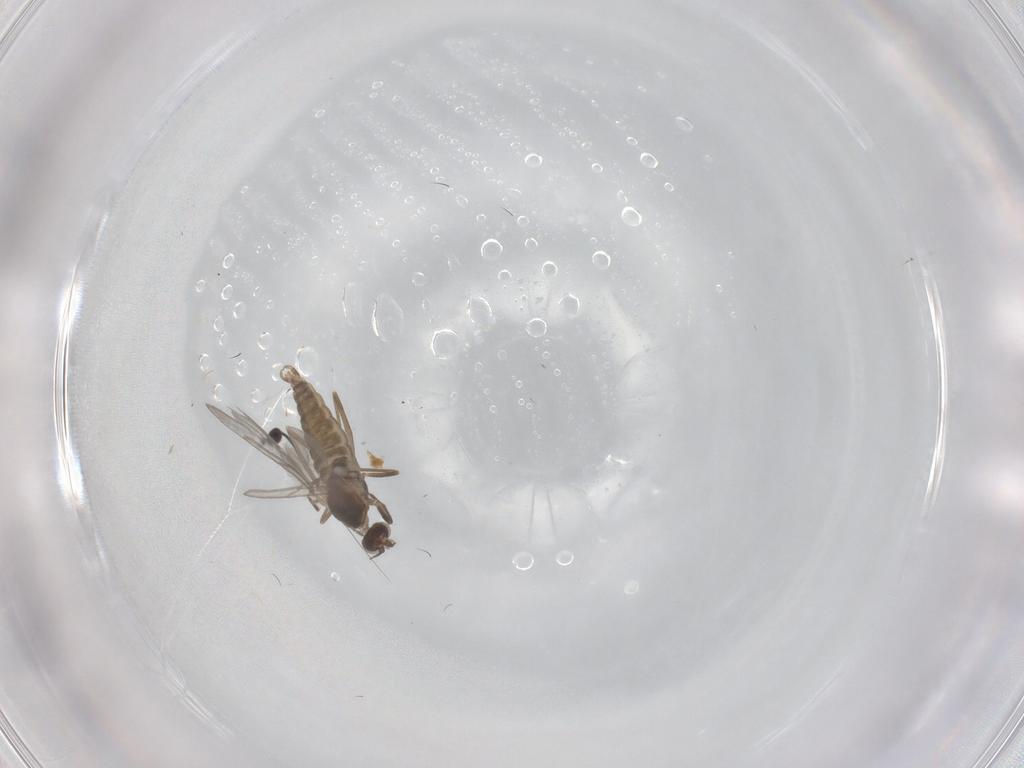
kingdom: Animalia
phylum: Arthropoda
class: Insecta
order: Diptera
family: Cecidomyiidae
